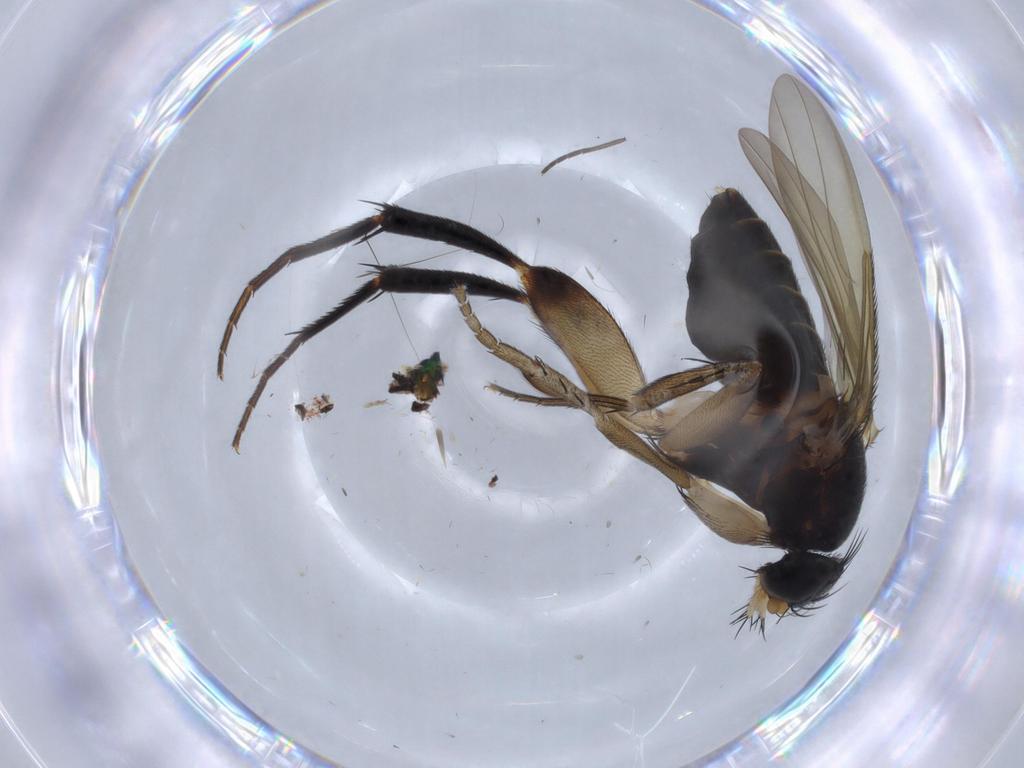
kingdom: Animalia
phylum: Arthropoda
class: Insecta
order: Diptera
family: Phoridae
